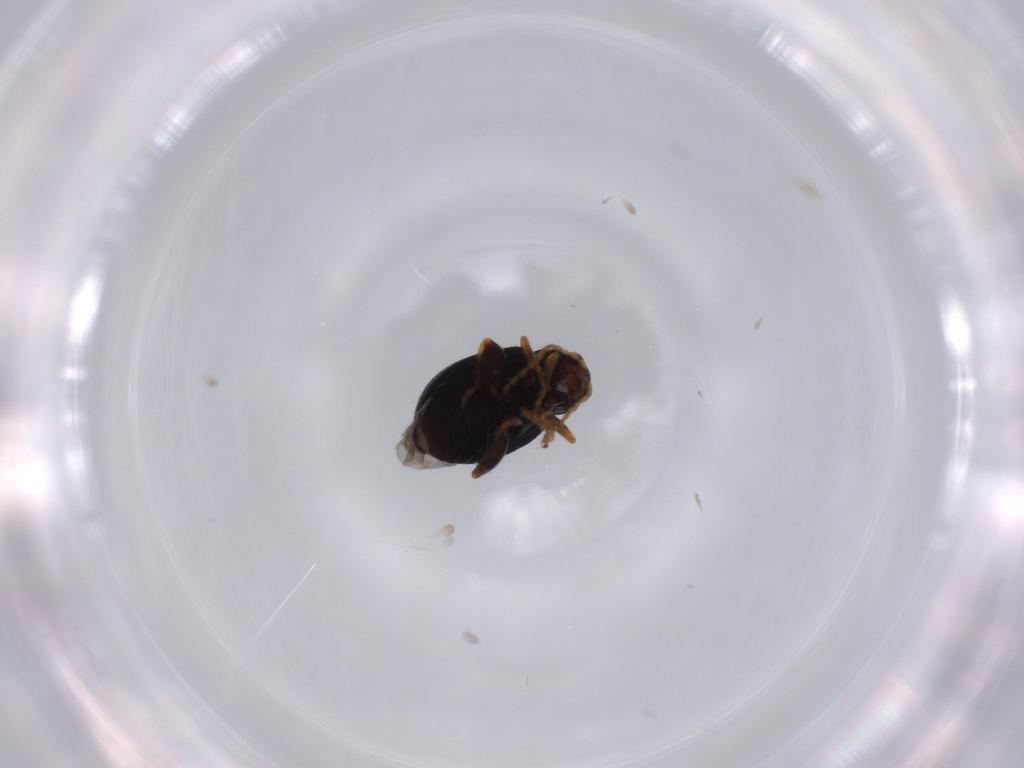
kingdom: Animalia
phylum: Arthropoda
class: Insecta
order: Coleoptera
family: Chrysomelidae
